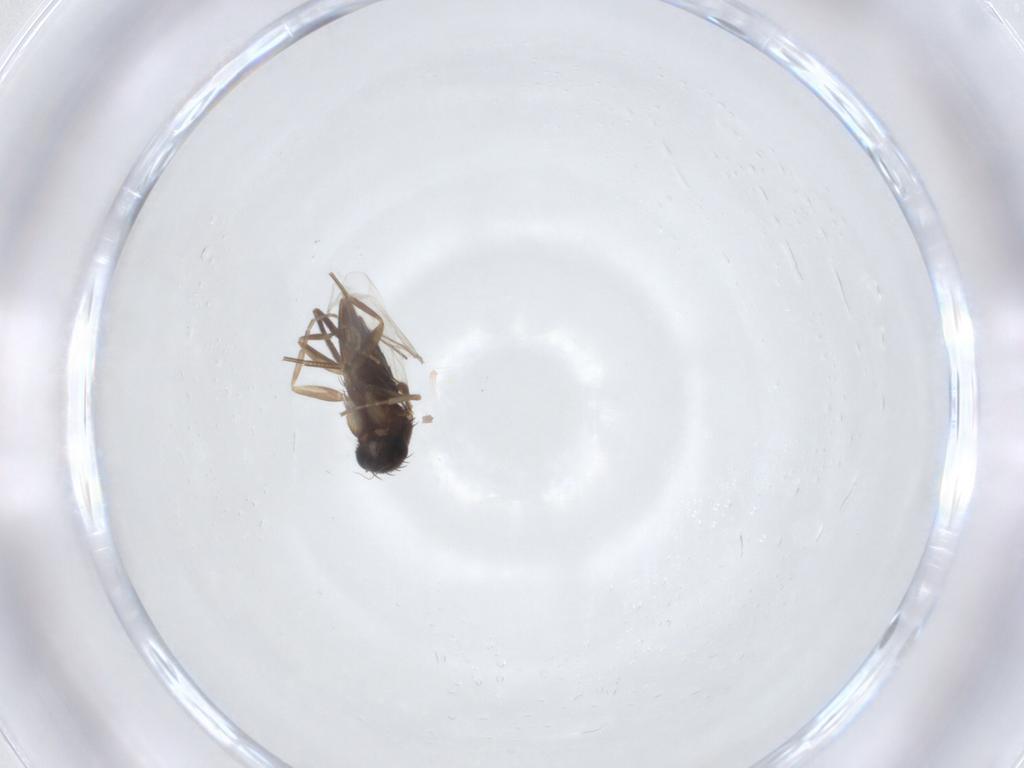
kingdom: Animalia
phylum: Arthropoda
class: Insecta
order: Diptera
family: Phoridae
